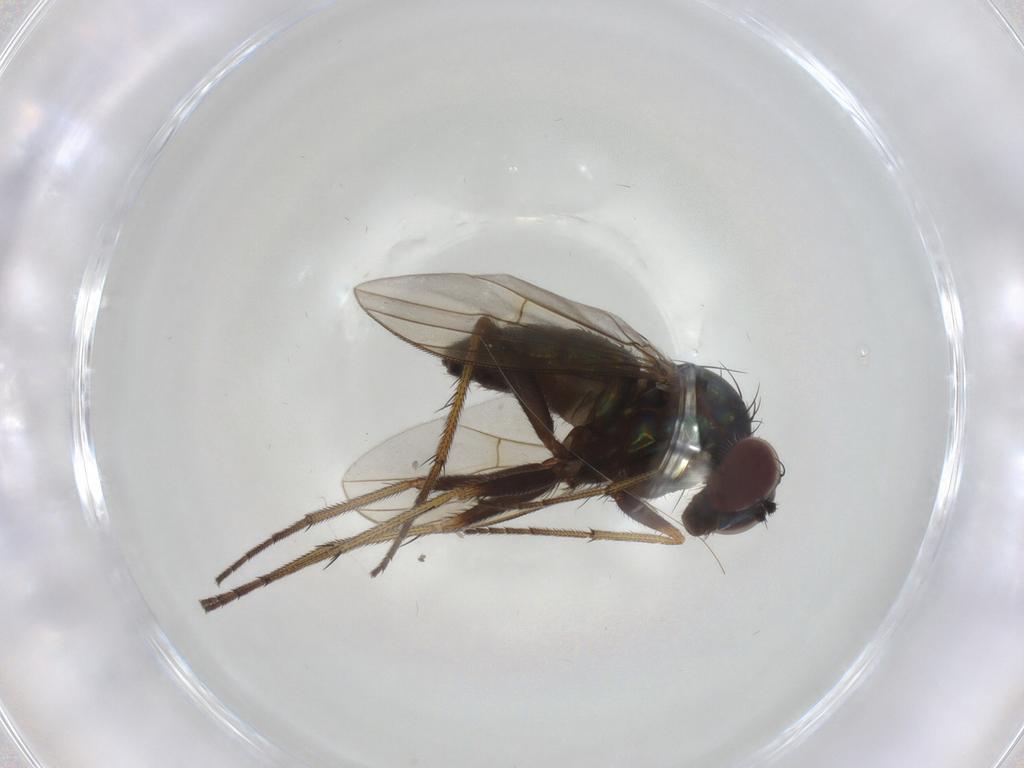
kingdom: Animalia
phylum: Arthropoda
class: Insecta
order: Diptera
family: Dolichopodidae
